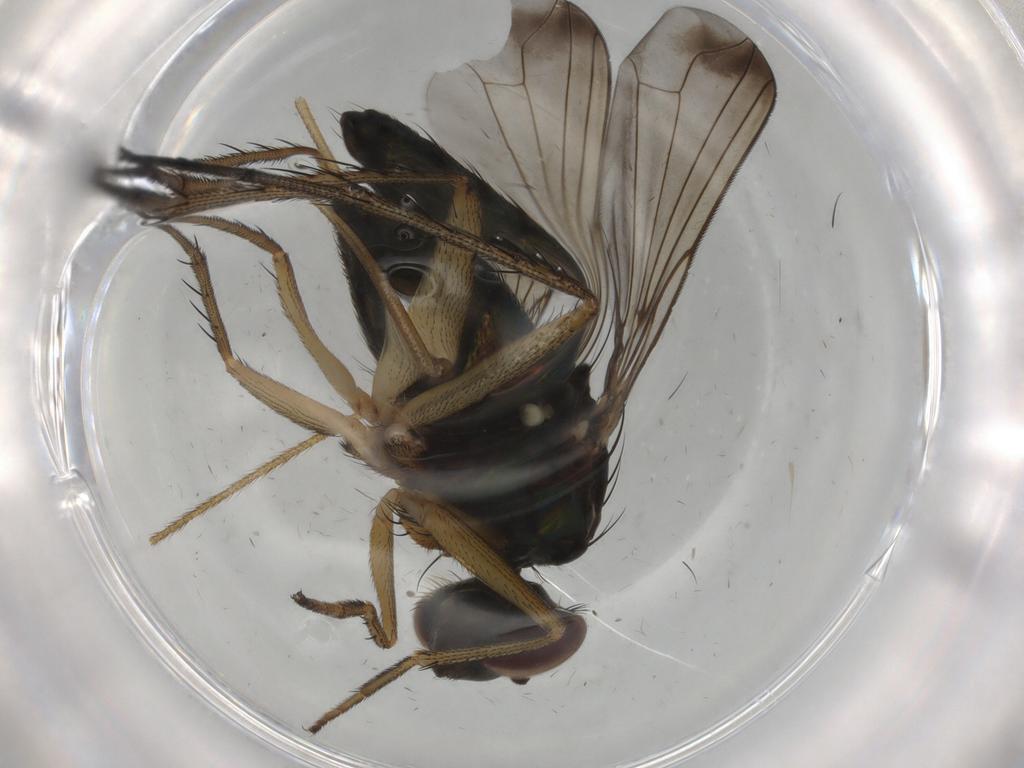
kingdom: Animalia
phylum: Arthropoda
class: Insecta
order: Diptera
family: Dolichopodidae
